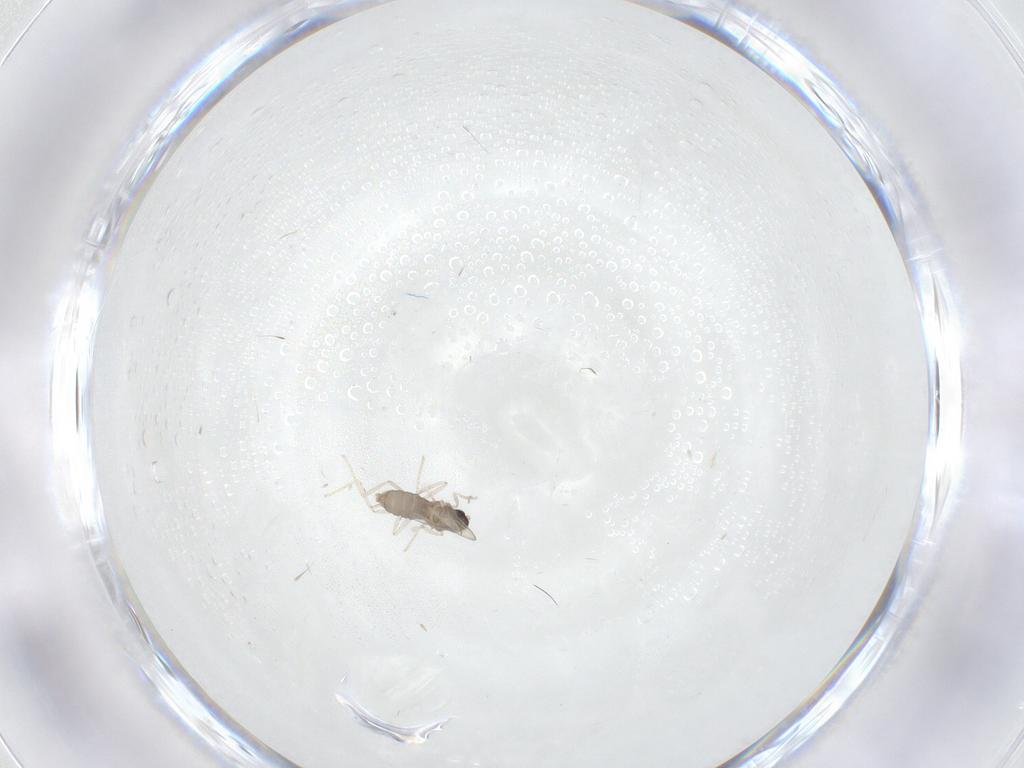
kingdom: Animalia
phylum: Arthropoda
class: Insecta
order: Diptera
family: Cecidomyiidae
